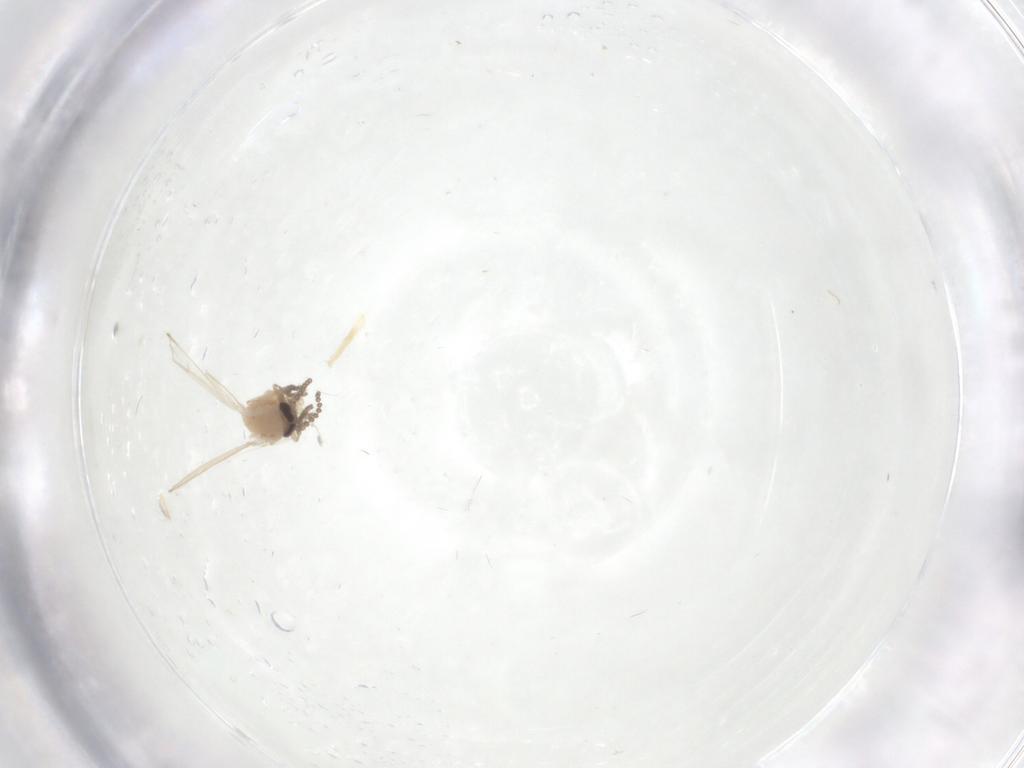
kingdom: Animalia
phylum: Arthropoda
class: Insecta
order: Diptera
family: Psychodidae
